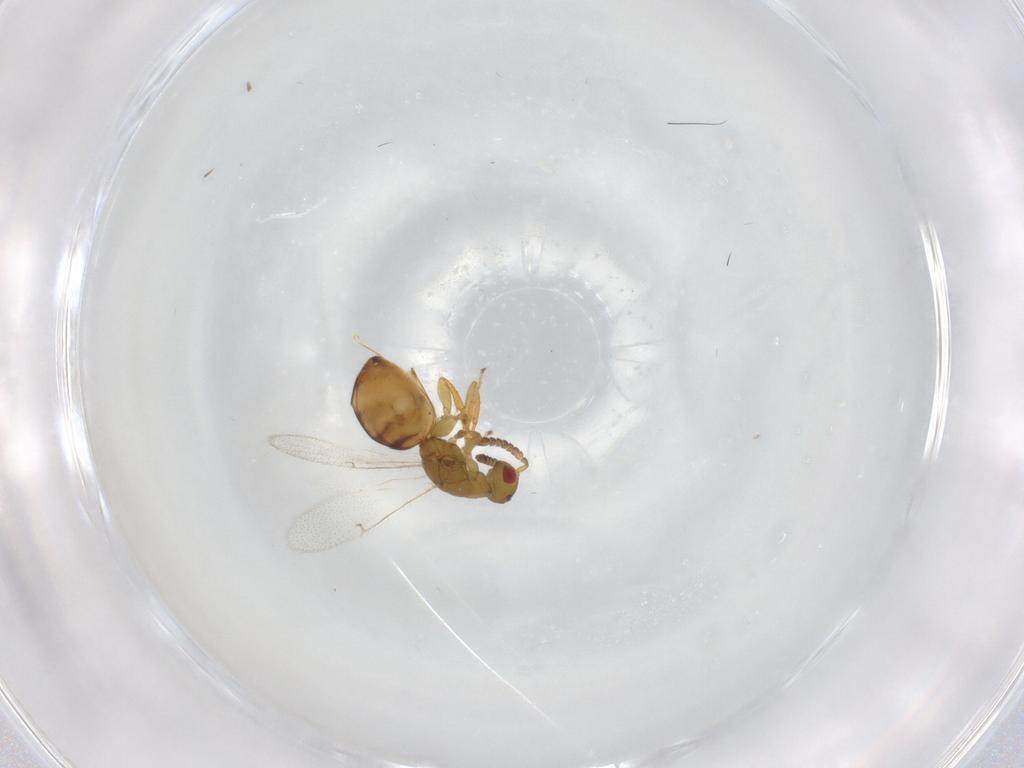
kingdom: Animalia
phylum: Arthropoda
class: Insecta
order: Hymenoptera
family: Agaonidae
